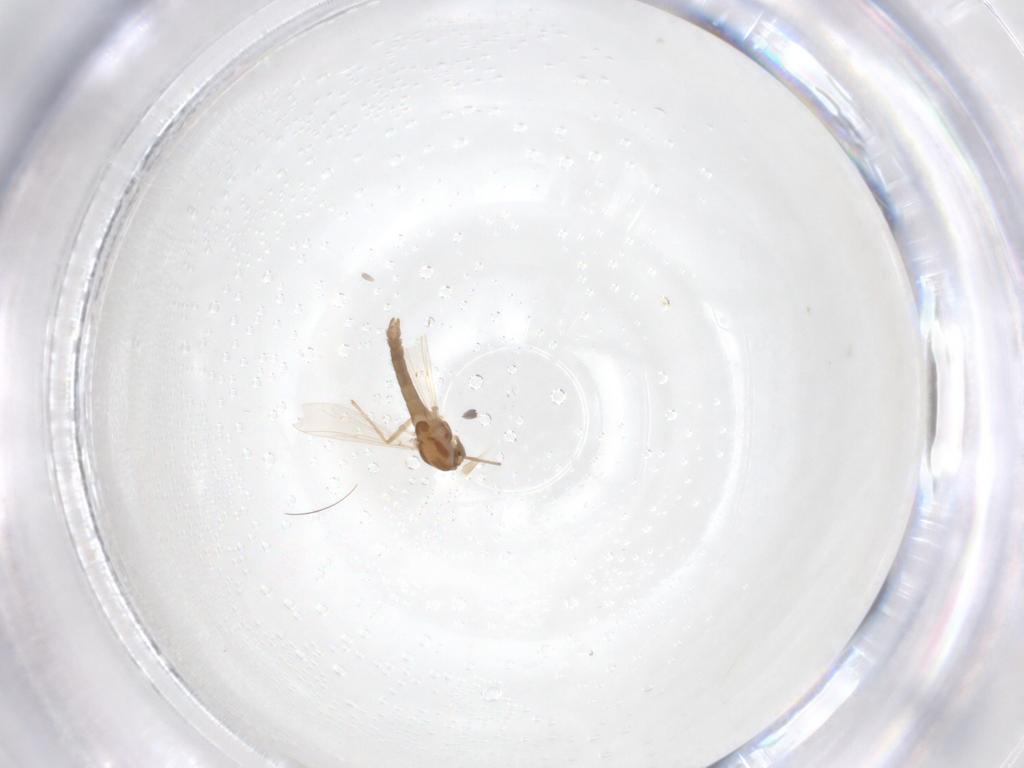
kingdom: Animalia
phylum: Arthropoda
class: Insecta
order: Diptera
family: Chironomidae
